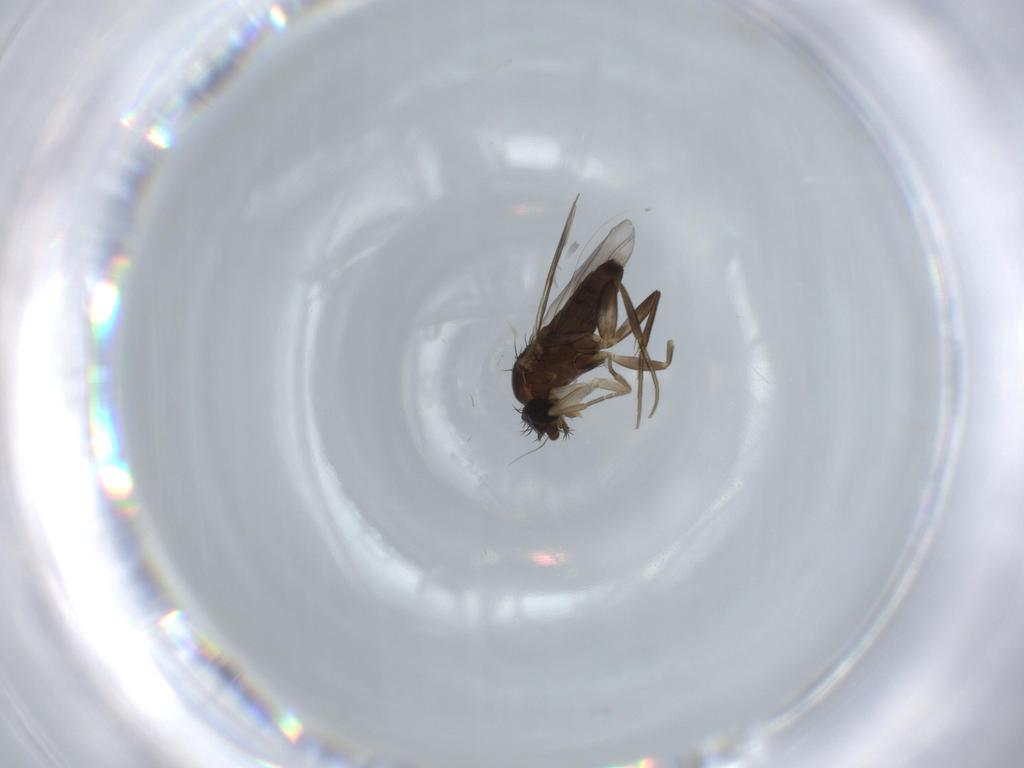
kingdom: Animalia
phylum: Arthropoda
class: Insecta
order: Diptera
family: Phoridae
